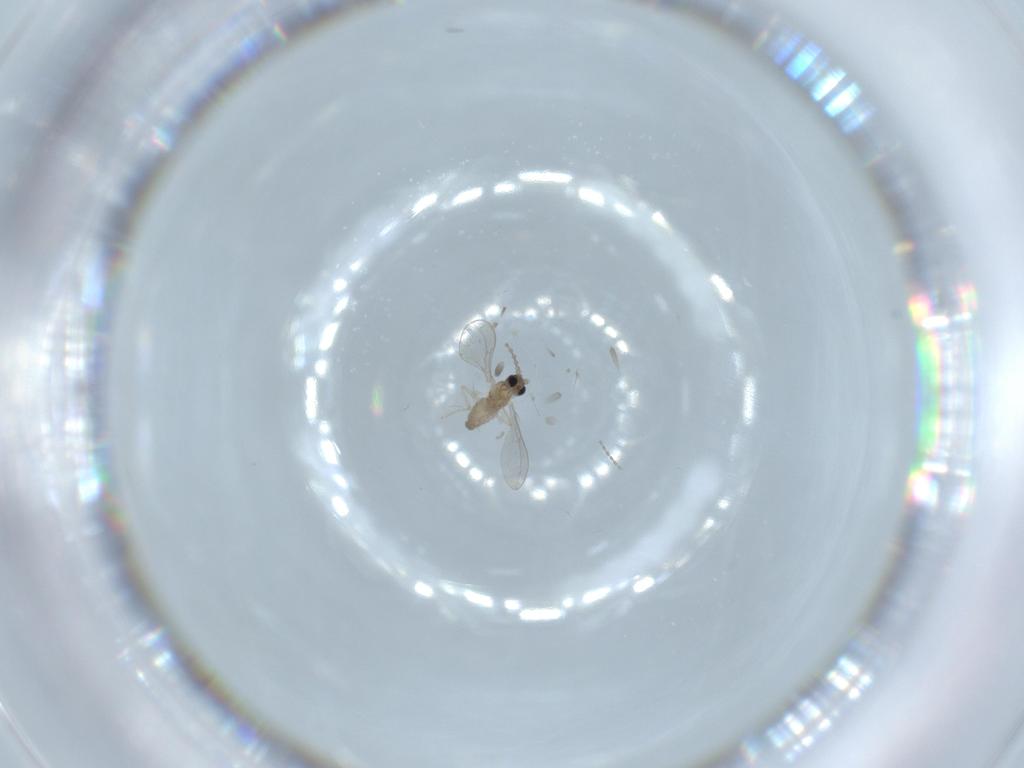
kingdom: Animalia
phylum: Arthropoda
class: Insecta
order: Diptera
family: Cecidomyiidae
